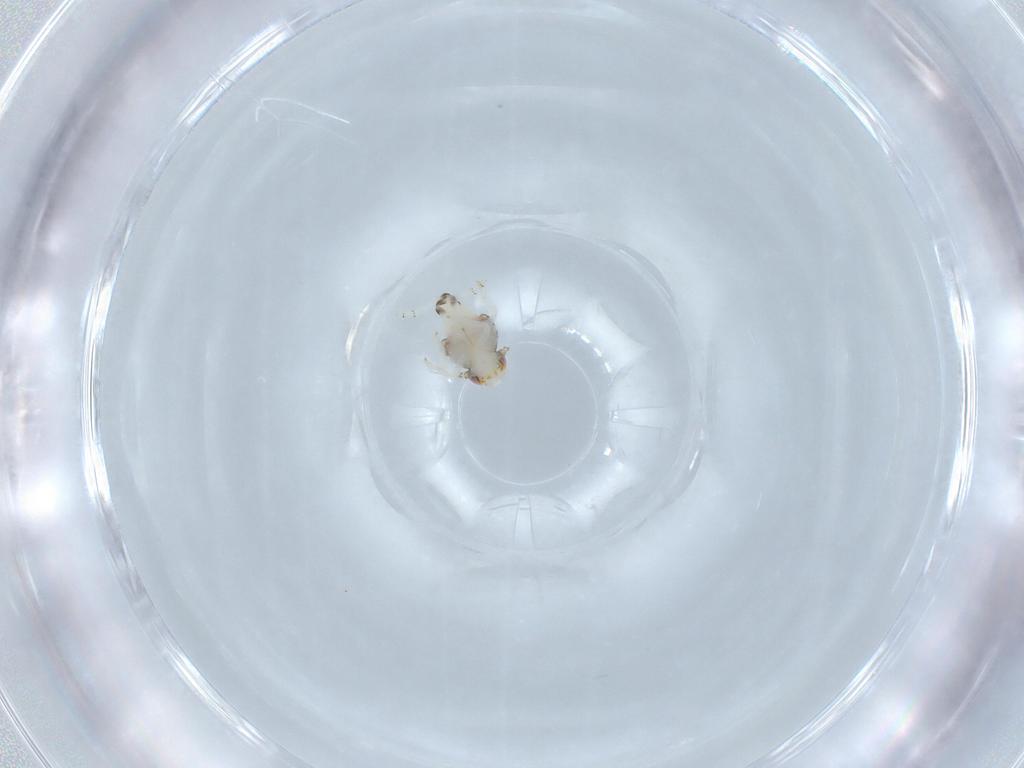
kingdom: Animalia
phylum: Arthropoda
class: Insecta
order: Hemiptera
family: Nogodinidae
